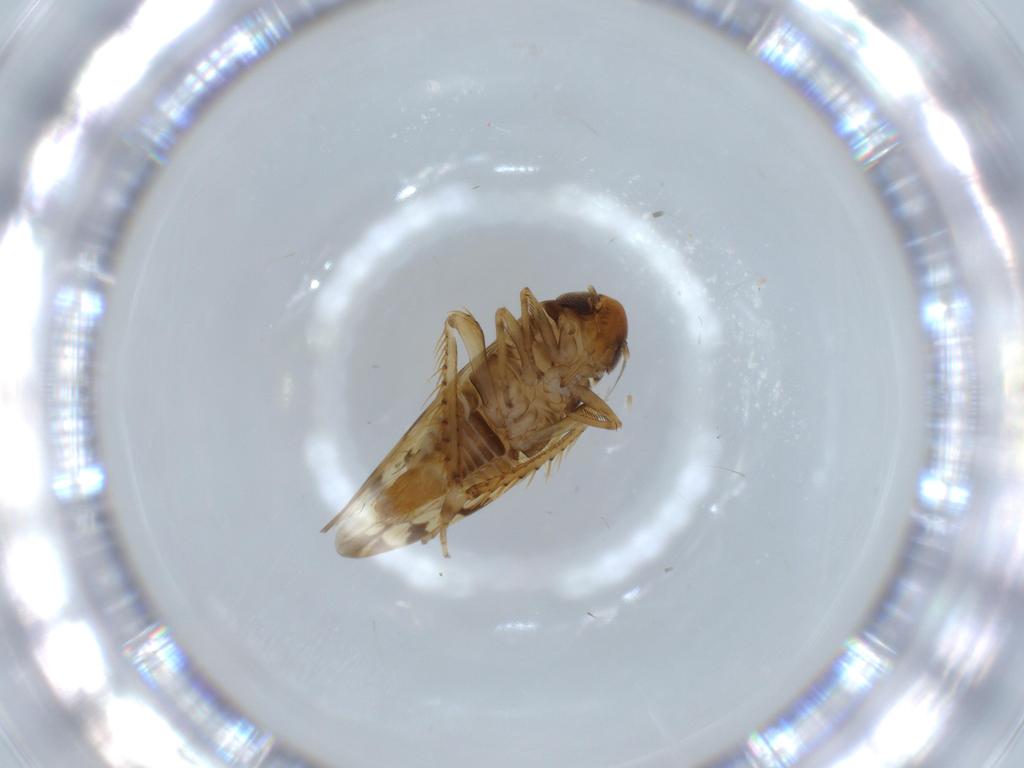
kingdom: Animalia
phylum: Arthropoda
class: Insecta
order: Hemiptera
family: Cicadellidae
